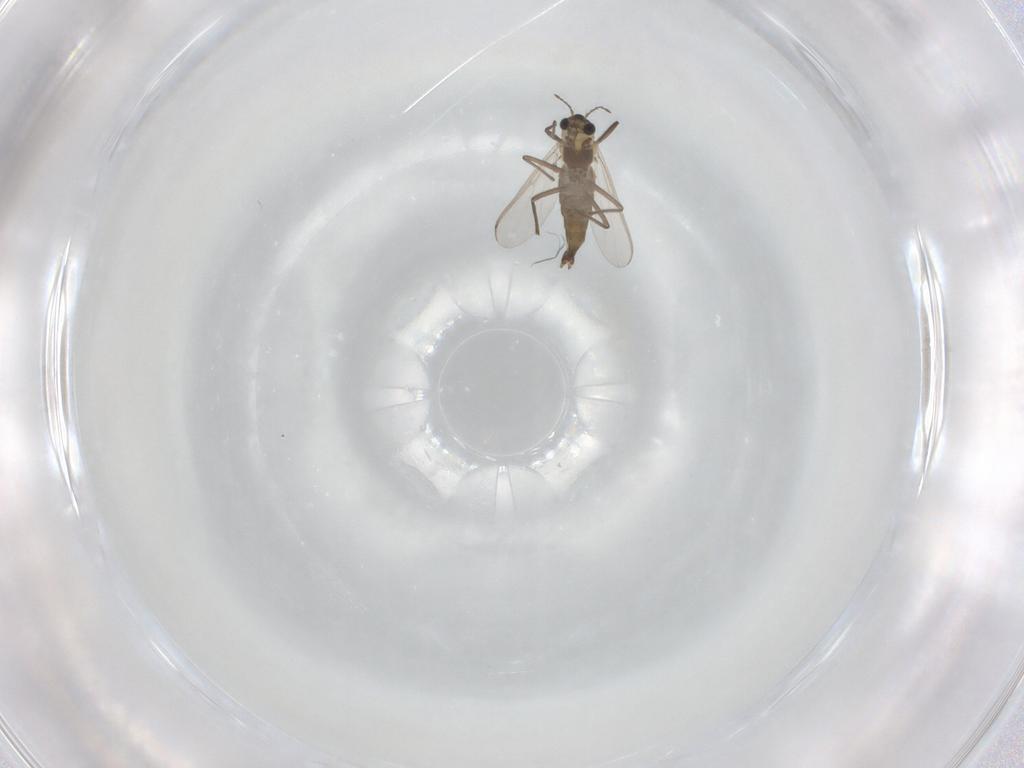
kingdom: Animalia
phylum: Arthropoda
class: Insecta
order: Diptera
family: Chironomidae
